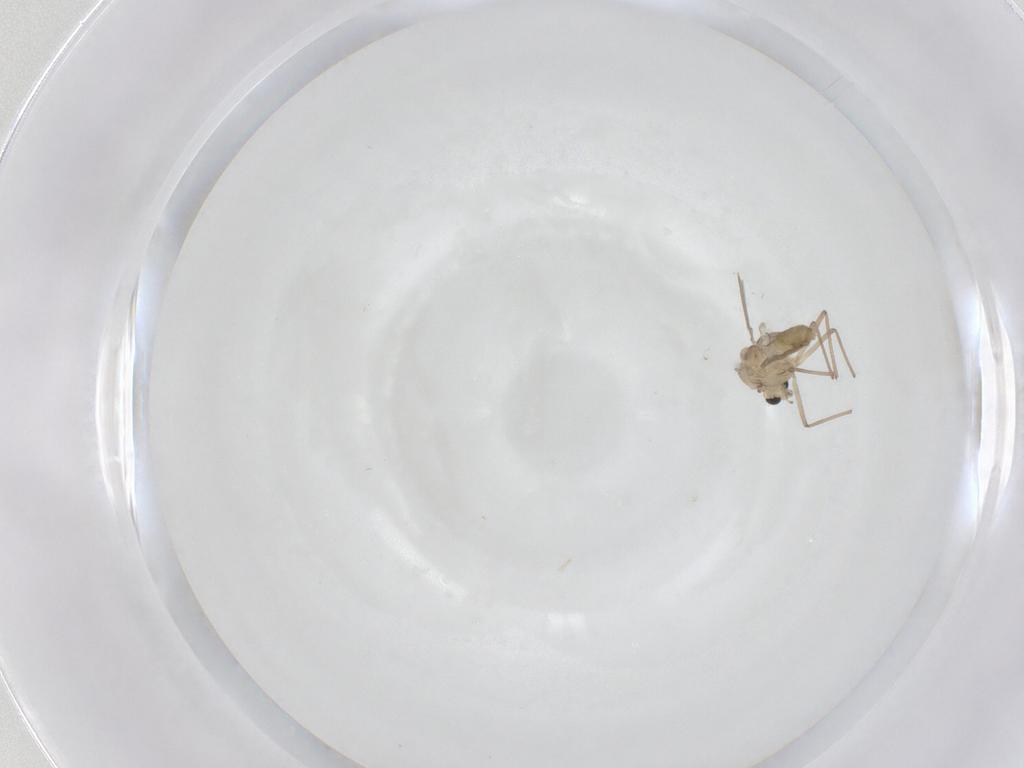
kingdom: Animalia
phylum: Arthropoda
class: Insecta
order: Diptera
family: Chironomidae
